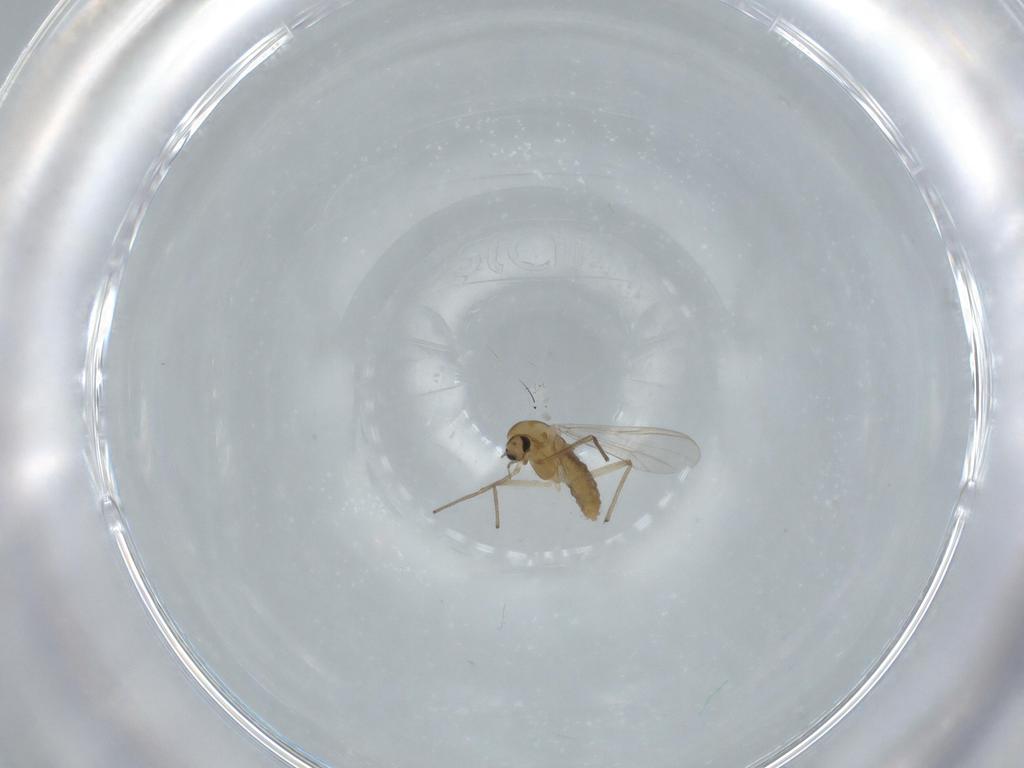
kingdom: Animalia
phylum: Arthropoda
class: Insecta
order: Diptera
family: Chironomidae
